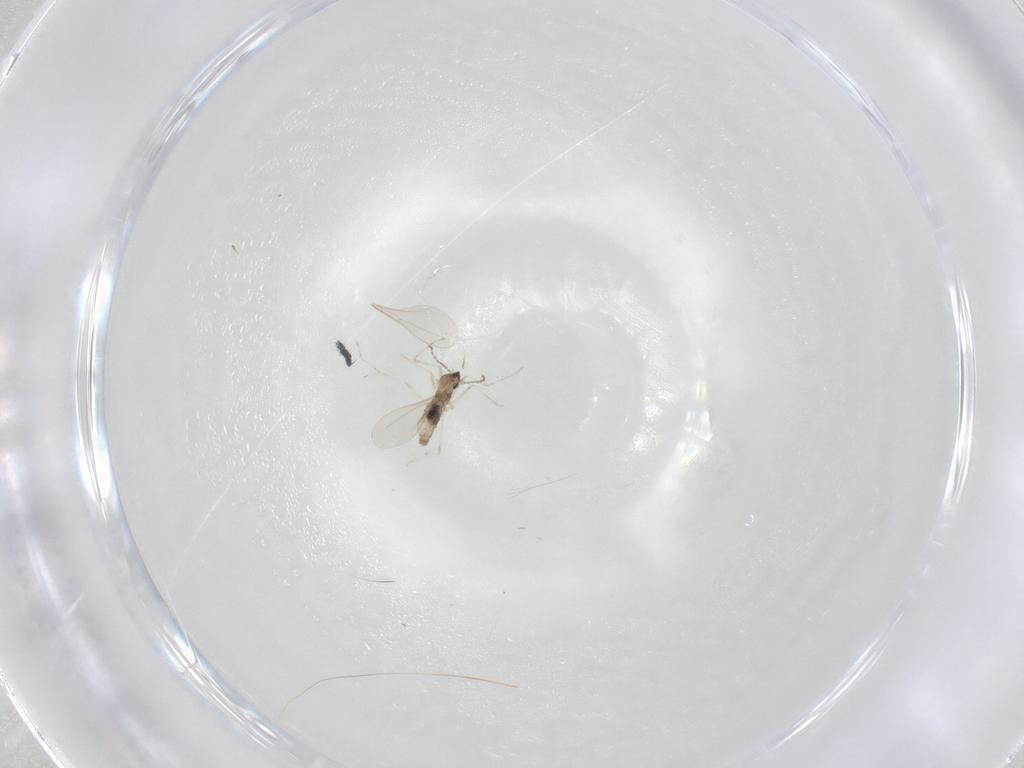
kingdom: Animalia
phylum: Arthropoda
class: Insecta
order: Diptera
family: Cecidomyiidae
